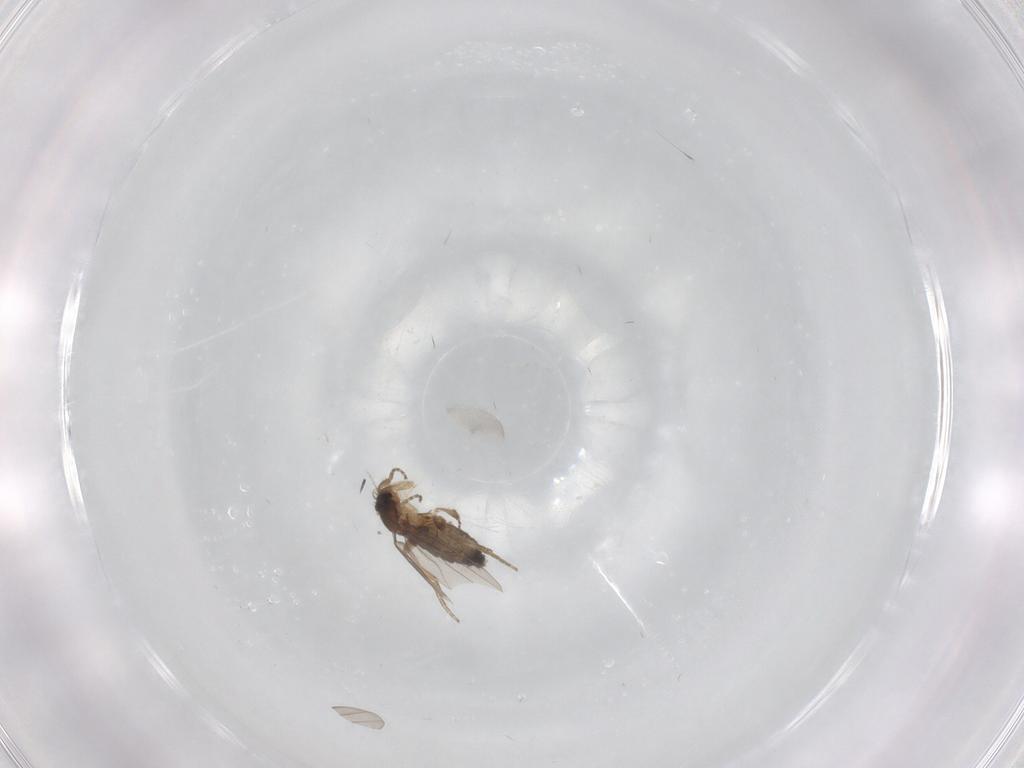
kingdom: Animalia
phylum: Arthropoda
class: Insecta
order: Diptera
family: Phoridae
